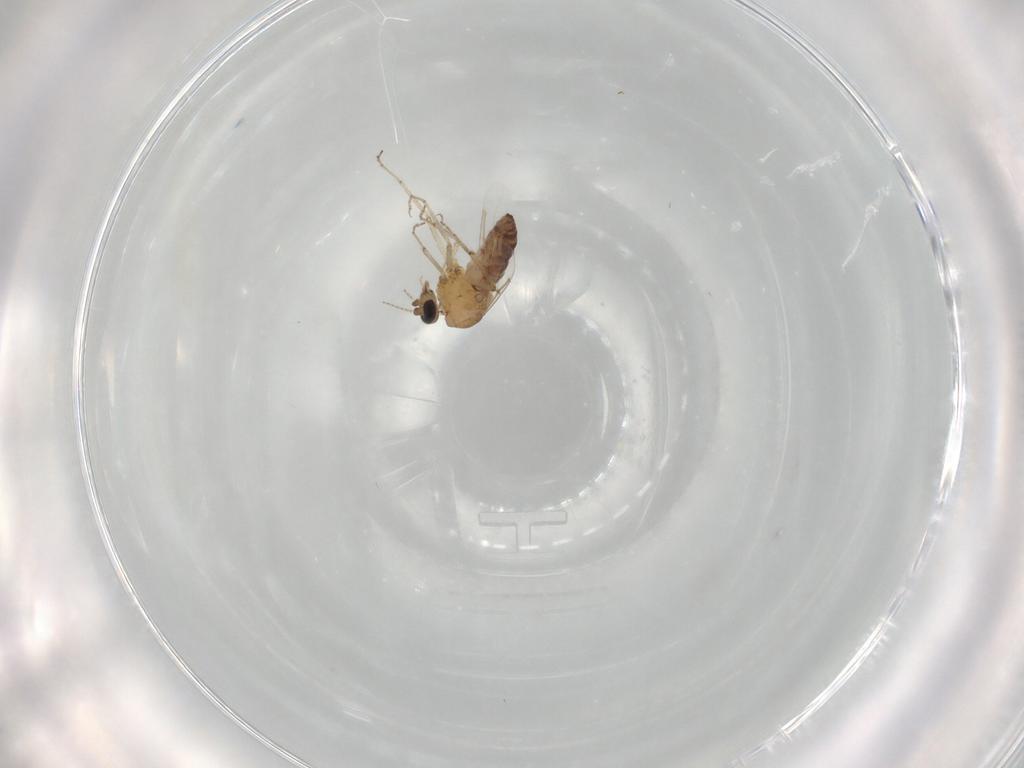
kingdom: Animalia
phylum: Arthropoda
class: Insecta
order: Diptera
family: Ceratopogonidae
